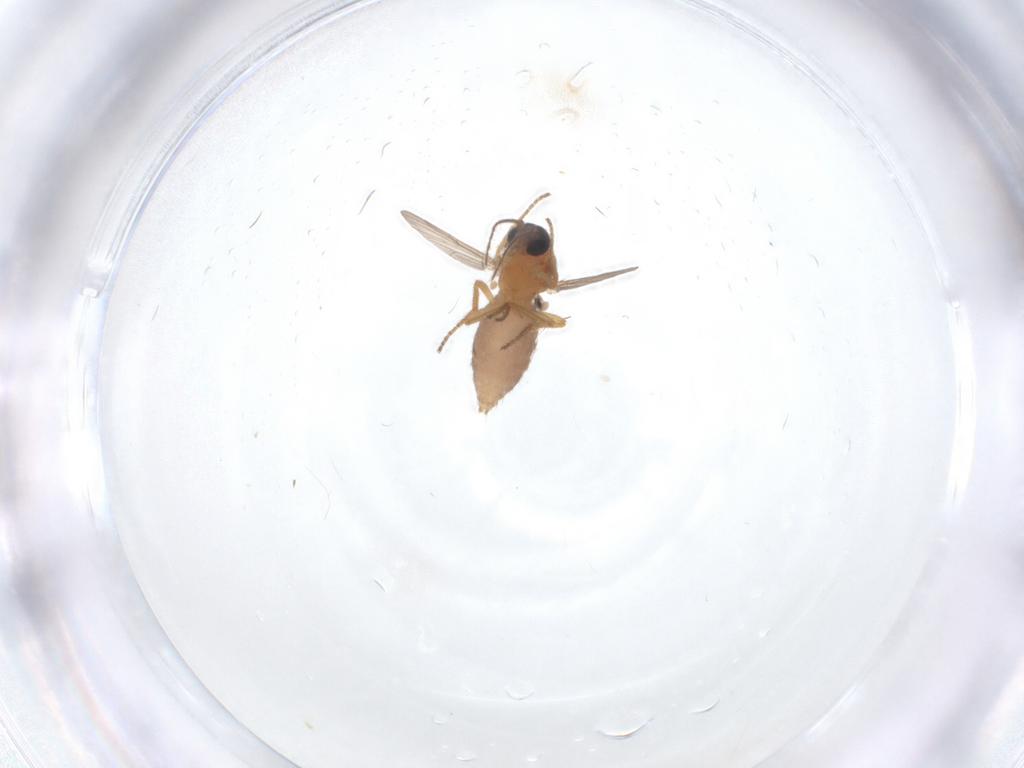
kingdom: Animalia
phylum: Arthropoda
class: Insecta
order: Diptera
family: Ceratopogonidae
